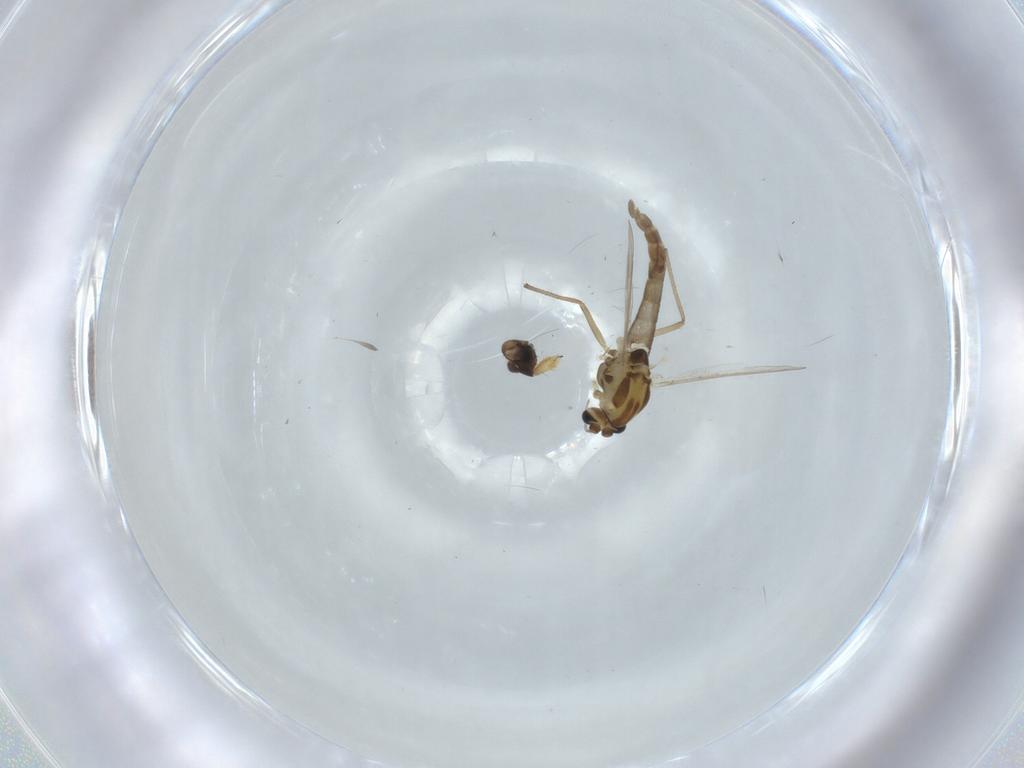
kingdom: Animalia
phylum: Arthropoda
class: Insecta
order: Diptera
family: Chironomidae
